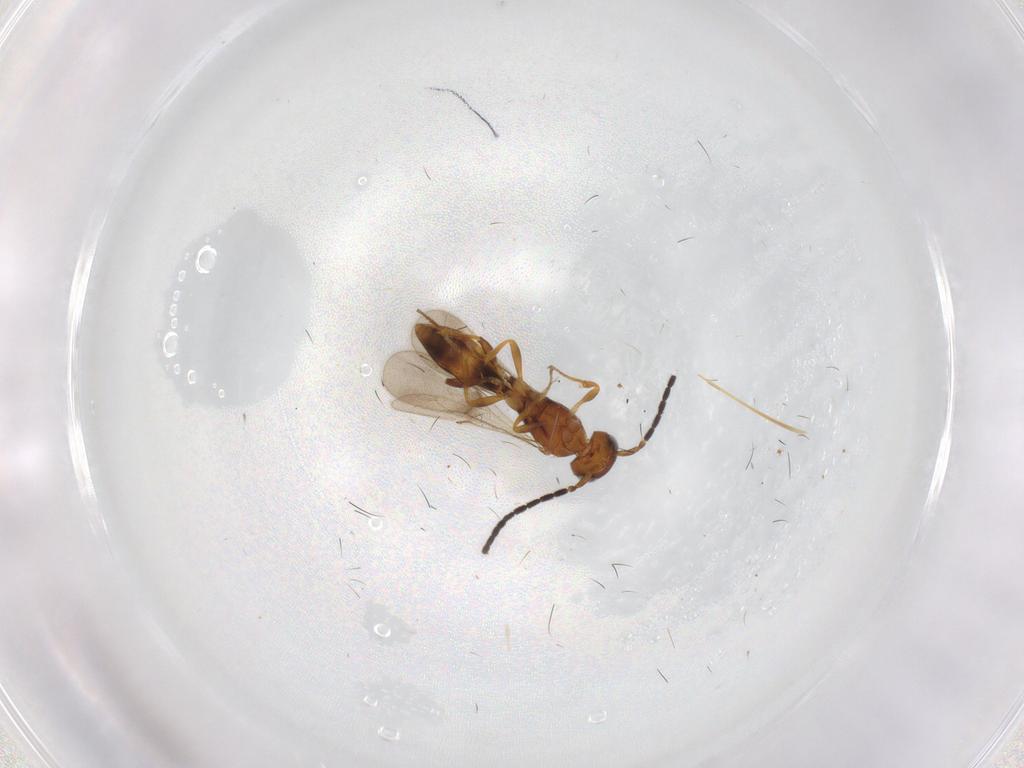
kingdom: Animalia
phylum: Arthropoda
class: Insecta
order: Hymenoptera
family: Scelionidae
